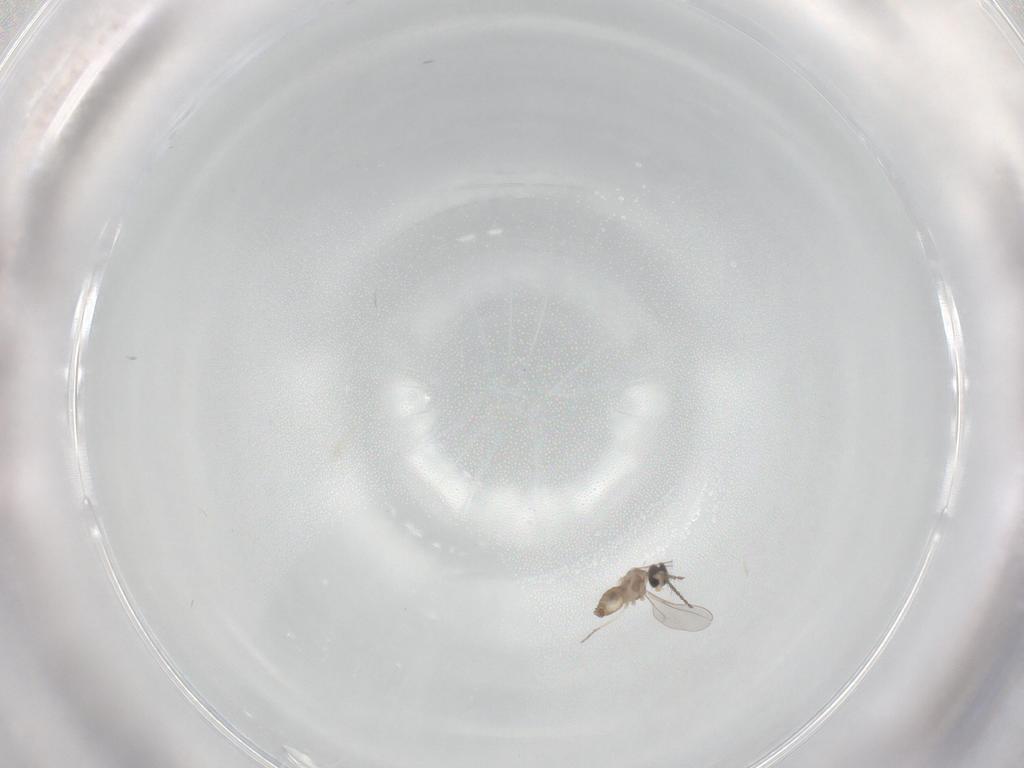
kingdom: Animalia
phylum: Arthropoda
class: Insecta
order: Diptera
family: Cecidomyiidae
